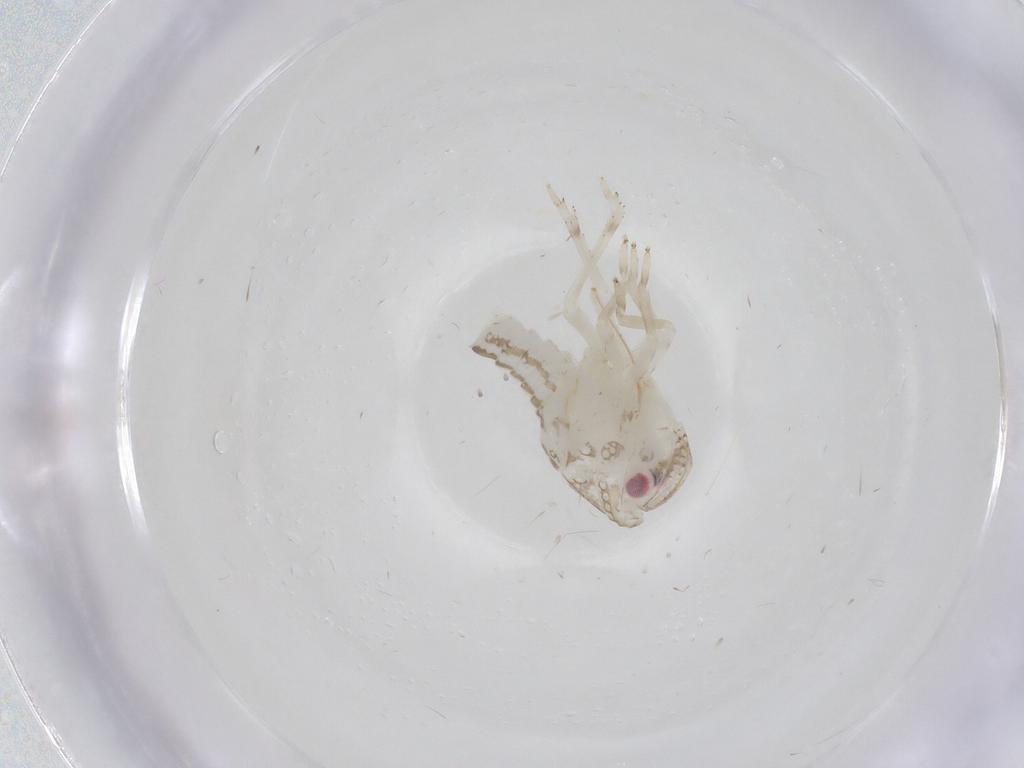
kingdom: Animalia
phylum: Arthropoda
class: Insecta
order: Hemiptera
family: Fulgoroidea_incertae_sedis
